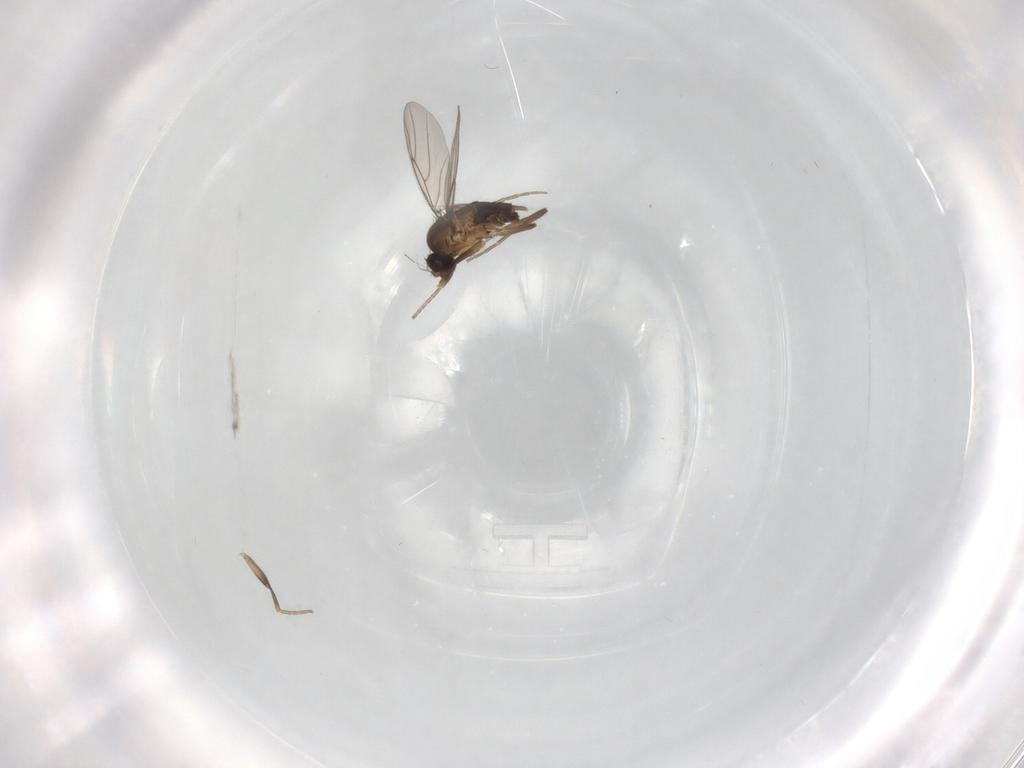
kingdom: Animalia
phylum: Arthropoda
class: Insecta
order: Diptera
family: Phoridae
